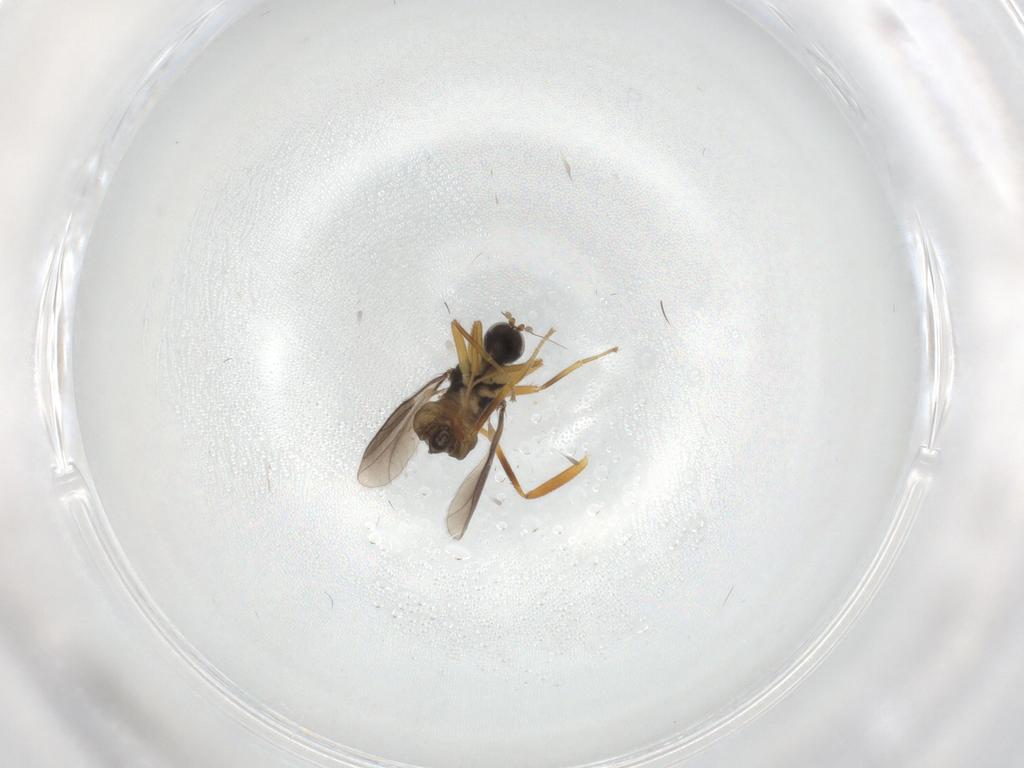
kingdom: Animalia
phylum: Arthropoda
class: Insecta
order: Diptera
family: Hybotidae
